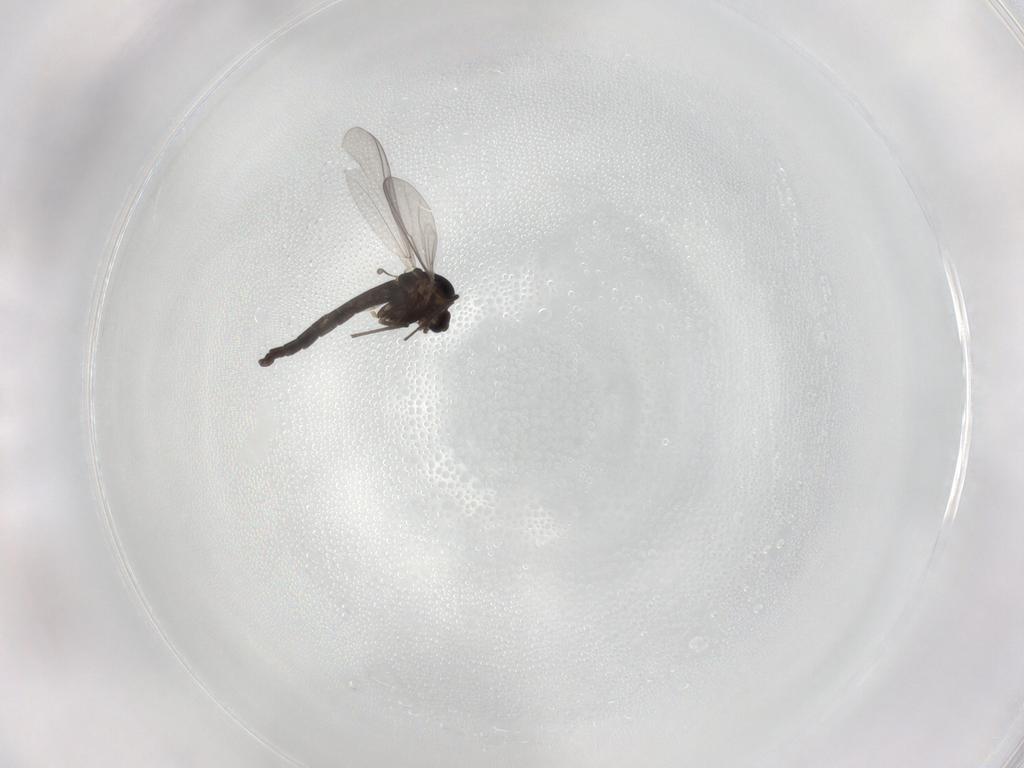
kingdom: Animalia
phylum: Arthropoda
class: Insecta
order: Diptera
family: Chironomidae
